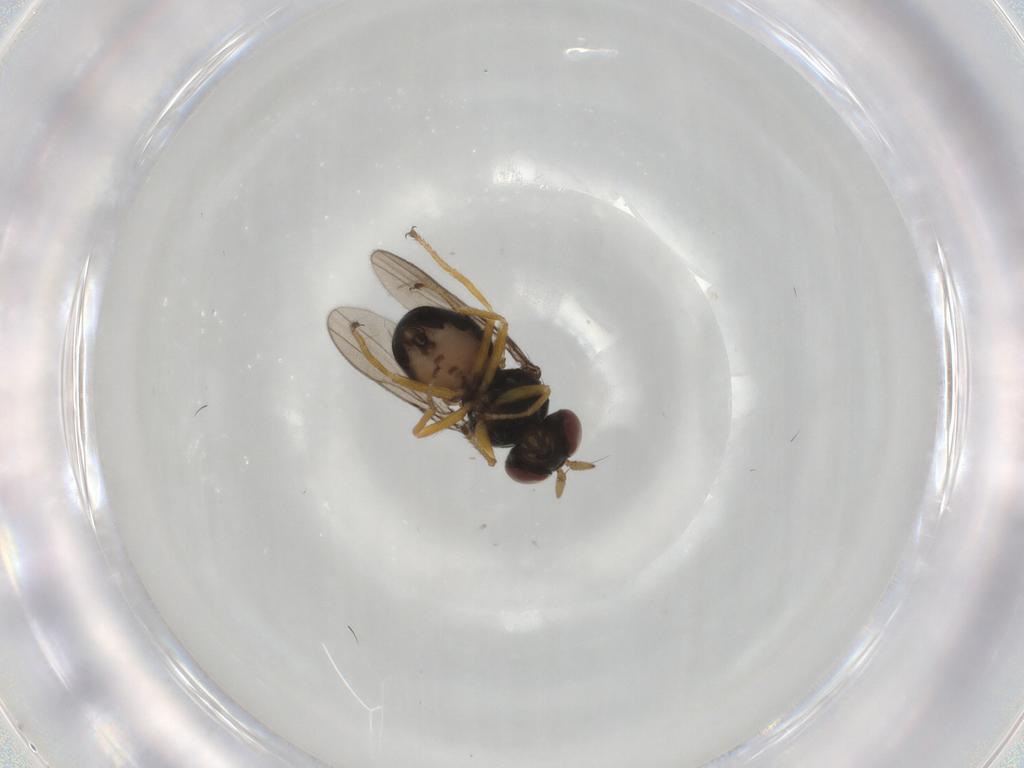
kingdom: Animalia
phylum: Arthropoda
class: Insecta
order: Diptera
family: Ephydridae
